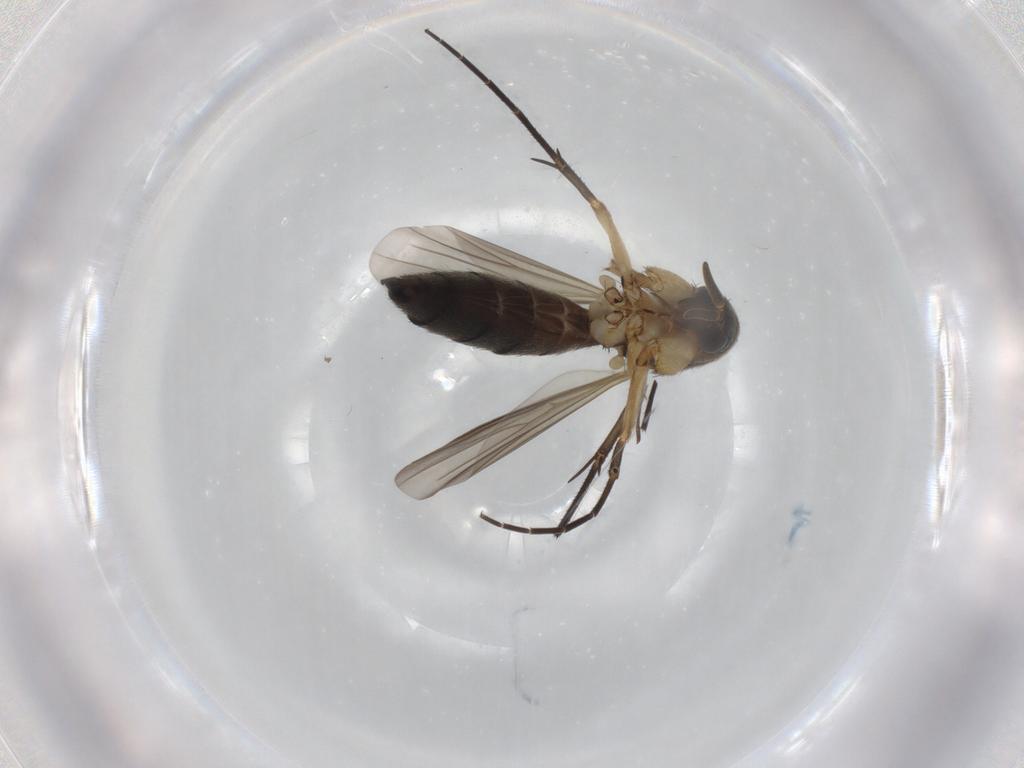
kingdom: Animalia
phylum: Arthropoda
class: Insecta
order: Diptera
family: Mycetophilidae
